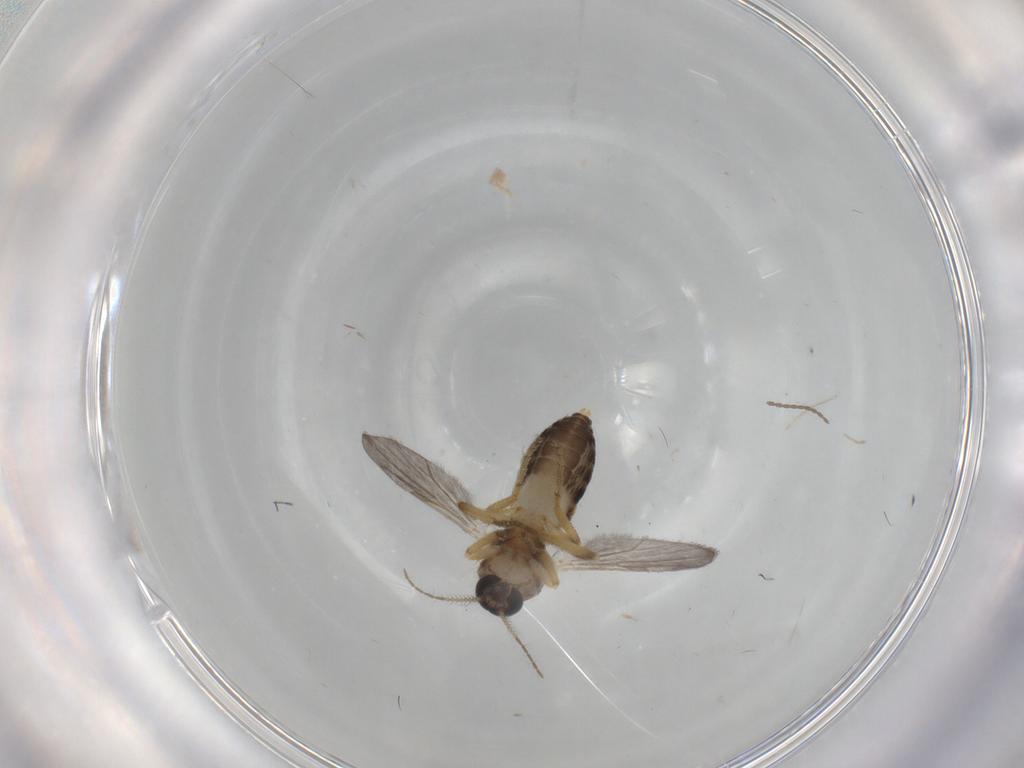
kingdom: Animalia
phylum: Arthropoda
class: Insecta
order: Diptera
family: Ceratopogonidae
